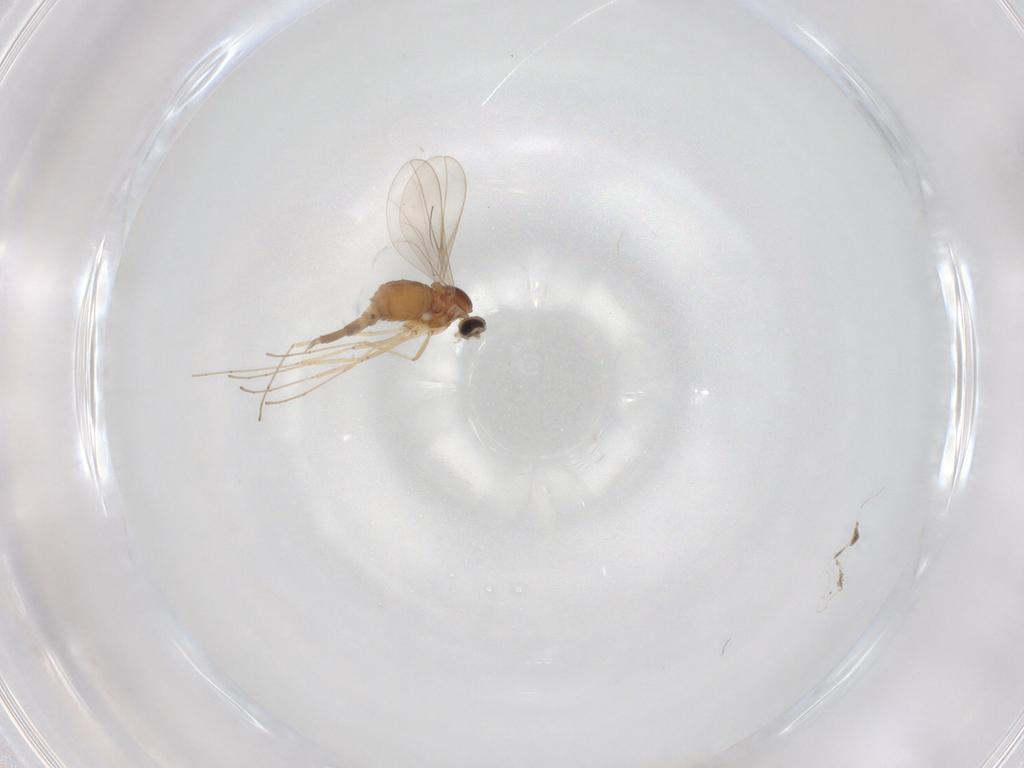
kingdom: Animalia
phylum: Arthropoda
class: Insecta
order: Diptera
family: Cecidomyiidae
